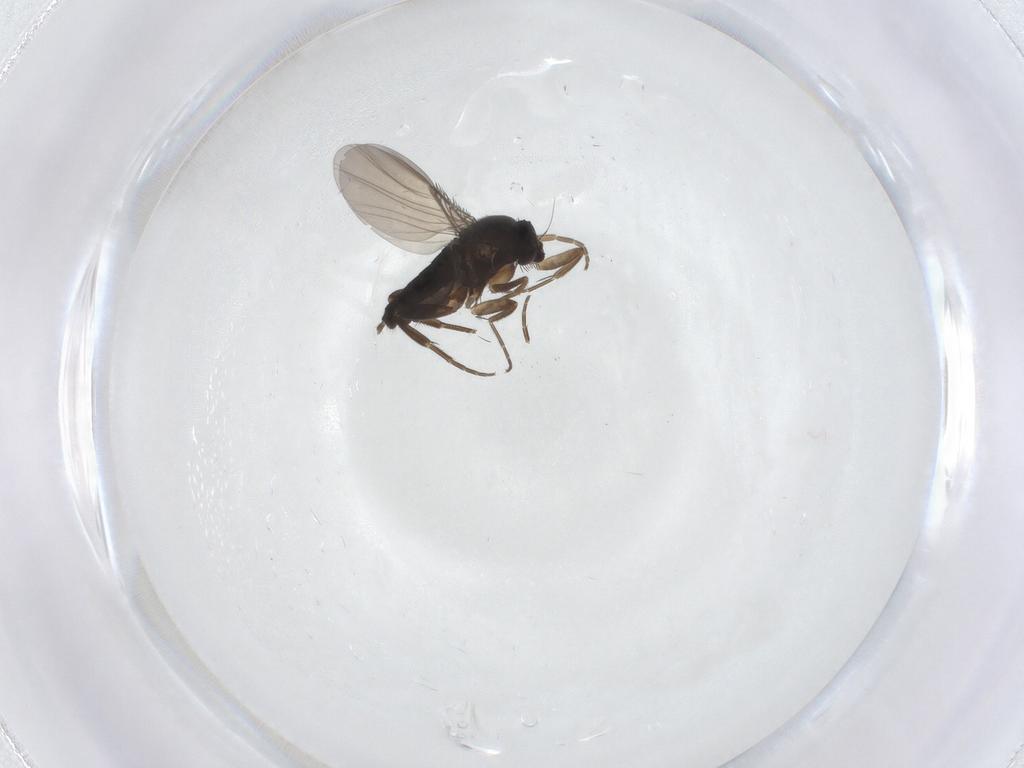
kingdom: Animalia
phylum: Arthropoda
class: Insecta
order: Diptera
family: Phoridae
